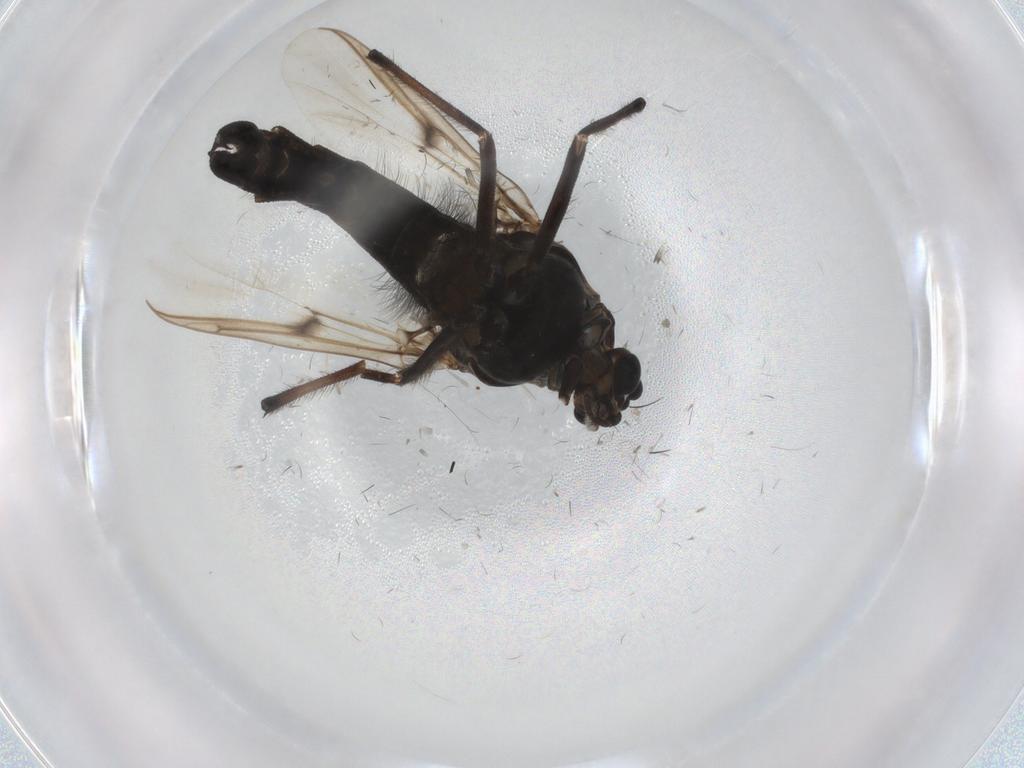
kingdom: Animalia
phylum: Arthropoda
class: Insecta
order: Diptera
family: Chironomidae
